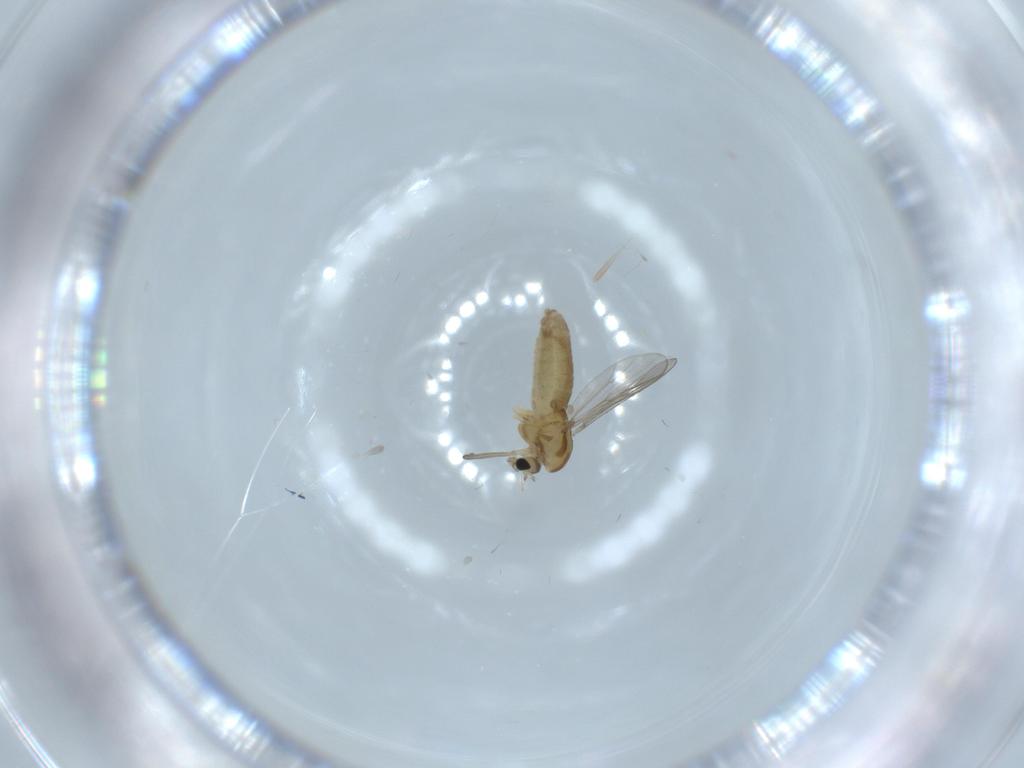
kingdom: Animalia
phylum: Arthropoda
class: Insecta
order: Diptera
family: Chironomidae
